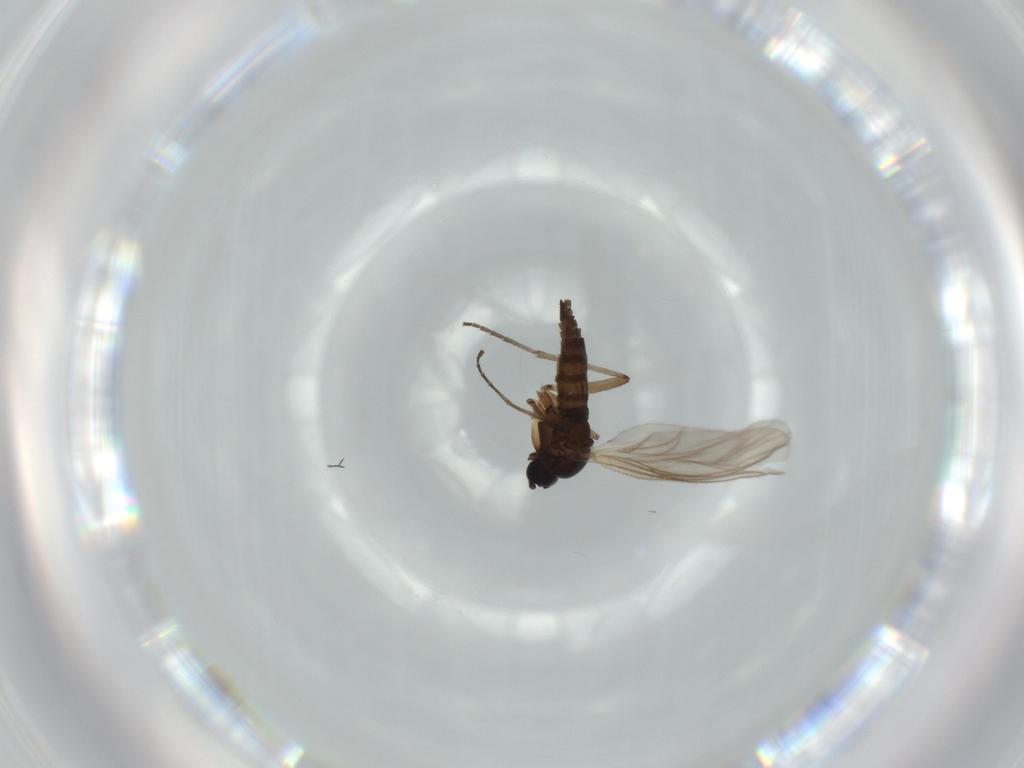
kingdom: Animalia
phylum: Arthropoda
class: Insecta
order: Diptera
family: Sciaridae
